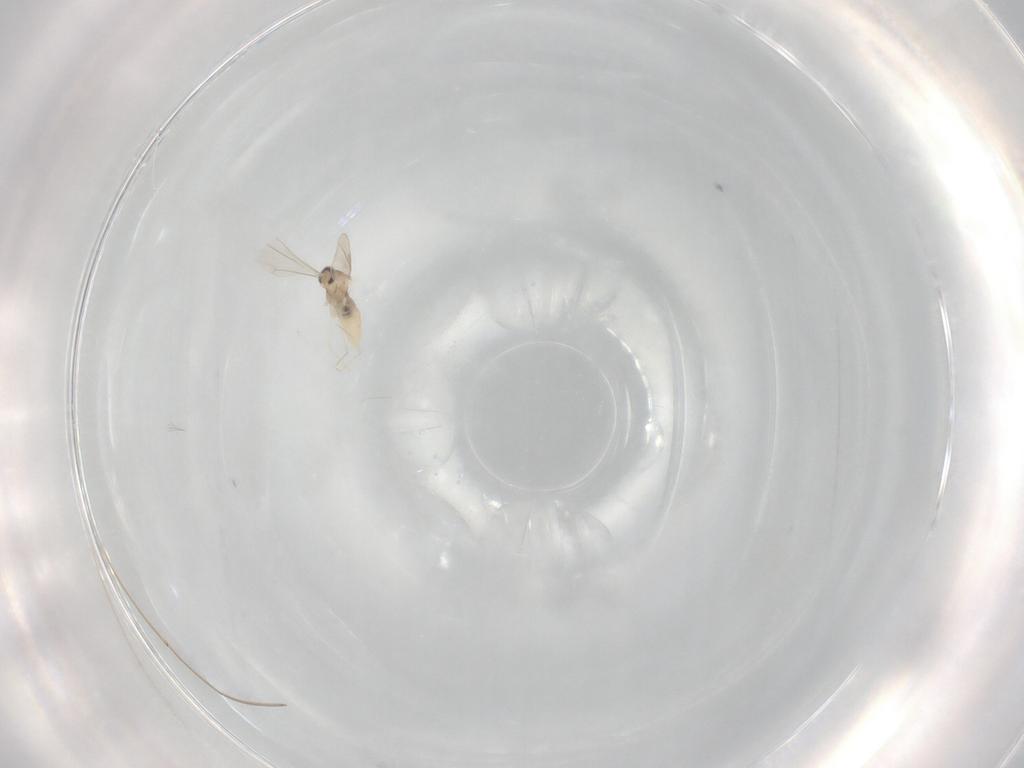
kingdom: Animalia
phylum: Arthropoda
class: Insecta
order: Diptera
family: Cecidomyiidae
